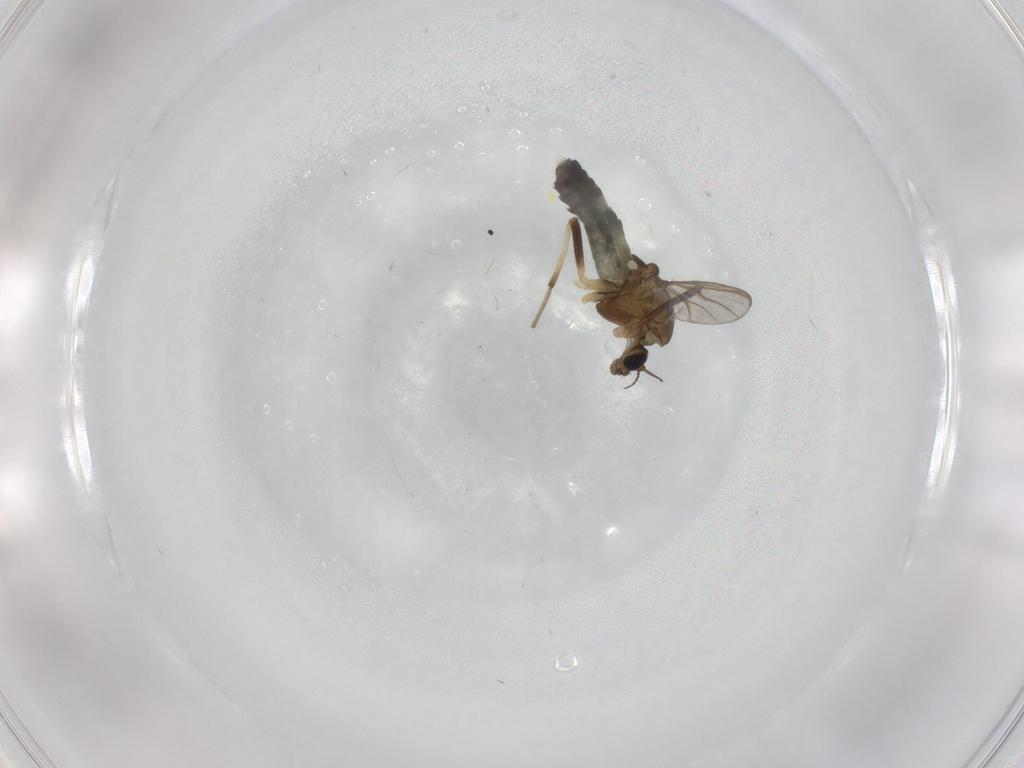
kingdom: Animalia
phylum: Arthropoda
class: Insecta
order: Diptera
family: Chironomidae
